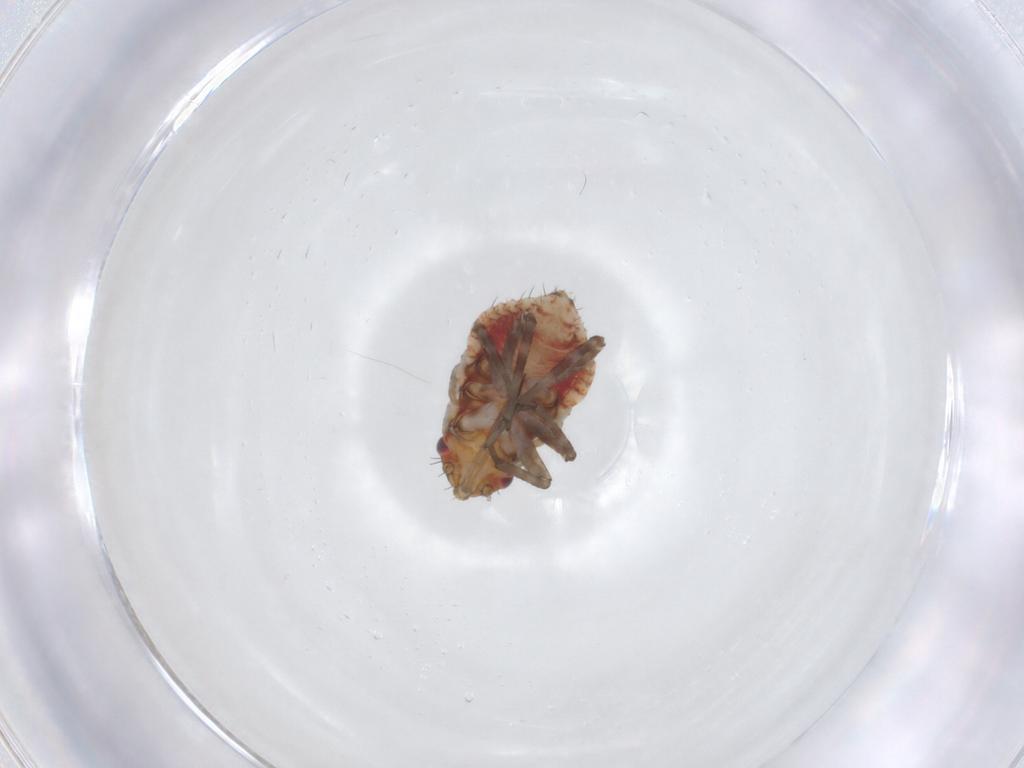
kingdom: Animalia
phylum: Arthropoda
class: Insecta
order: Hemiptera
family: Miridae
